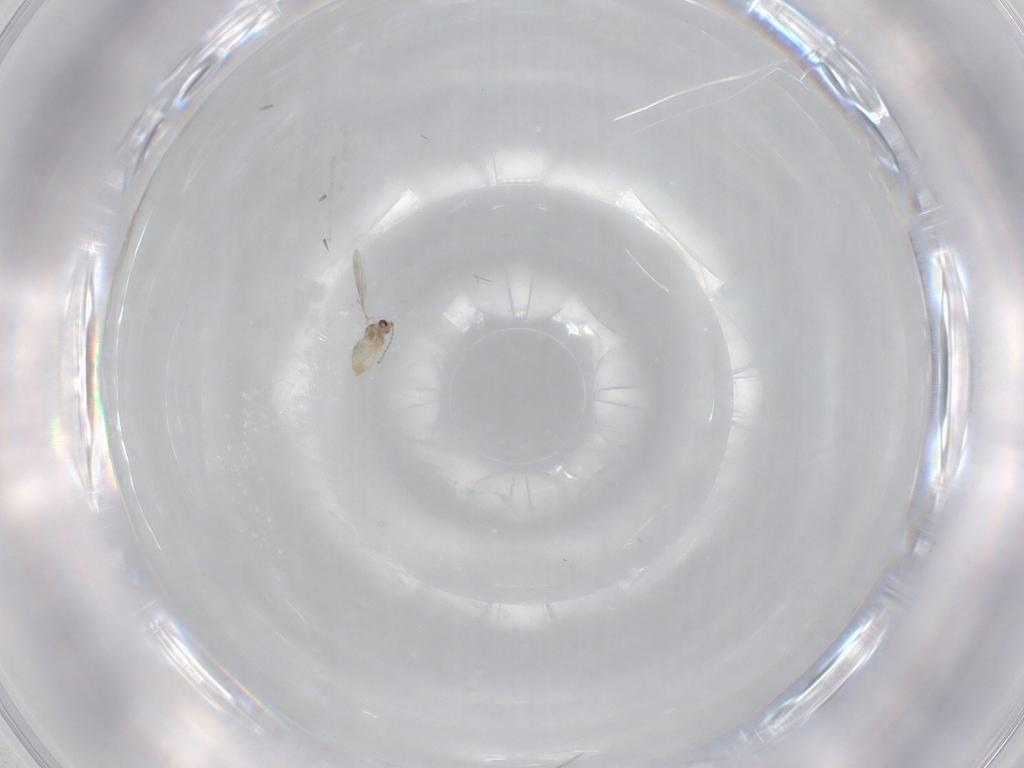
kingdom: Animalia
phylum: Arthropoda
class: Insecta
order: Diptera
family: Cecidomyiidae
